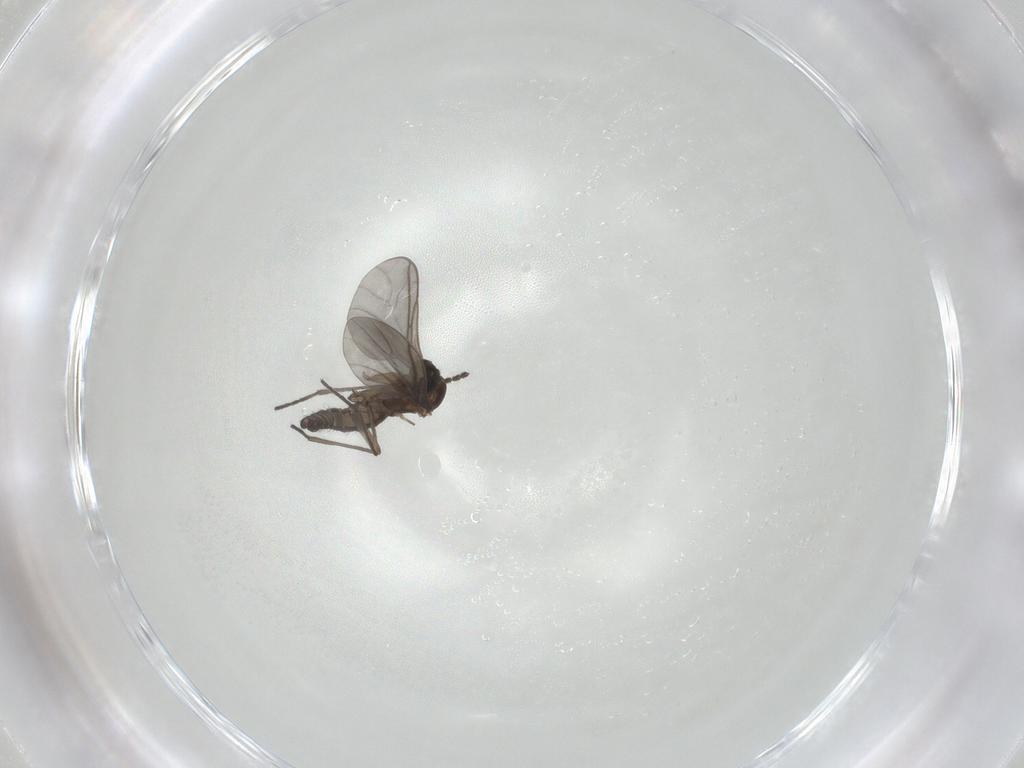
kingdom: Animalia
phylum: Arthropoda
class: Insecta
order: Diptera
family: Sciaridae
